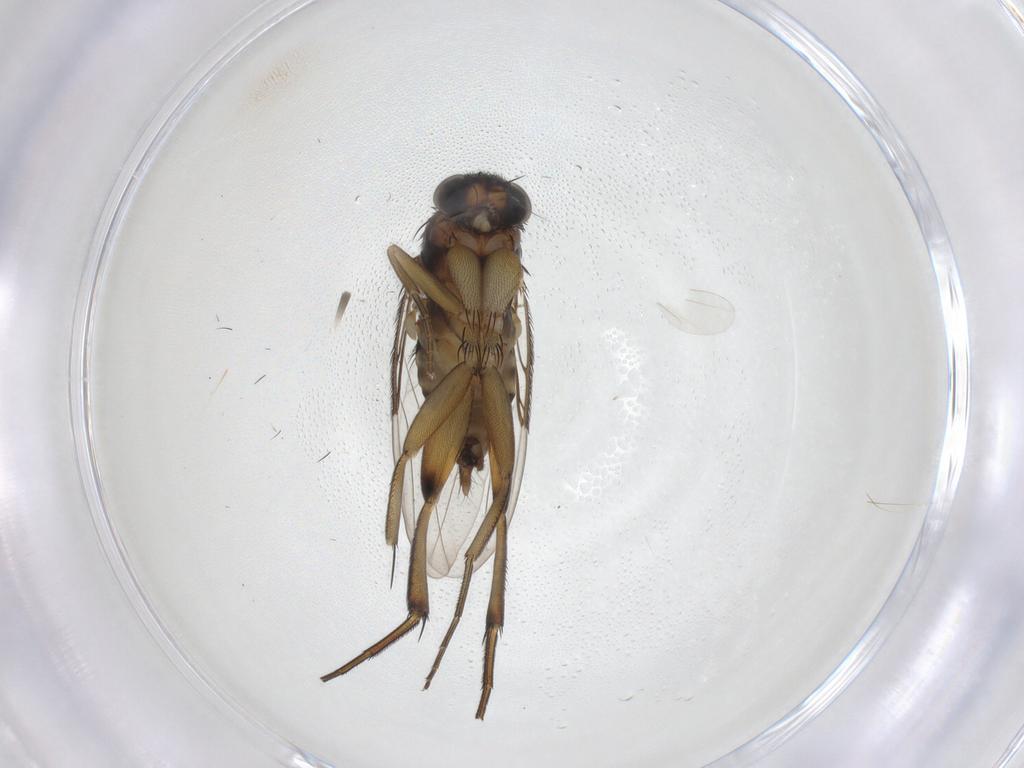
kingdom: Animalia
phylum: Arthropoda
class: Insecta
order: Diptera
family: Phoridae
